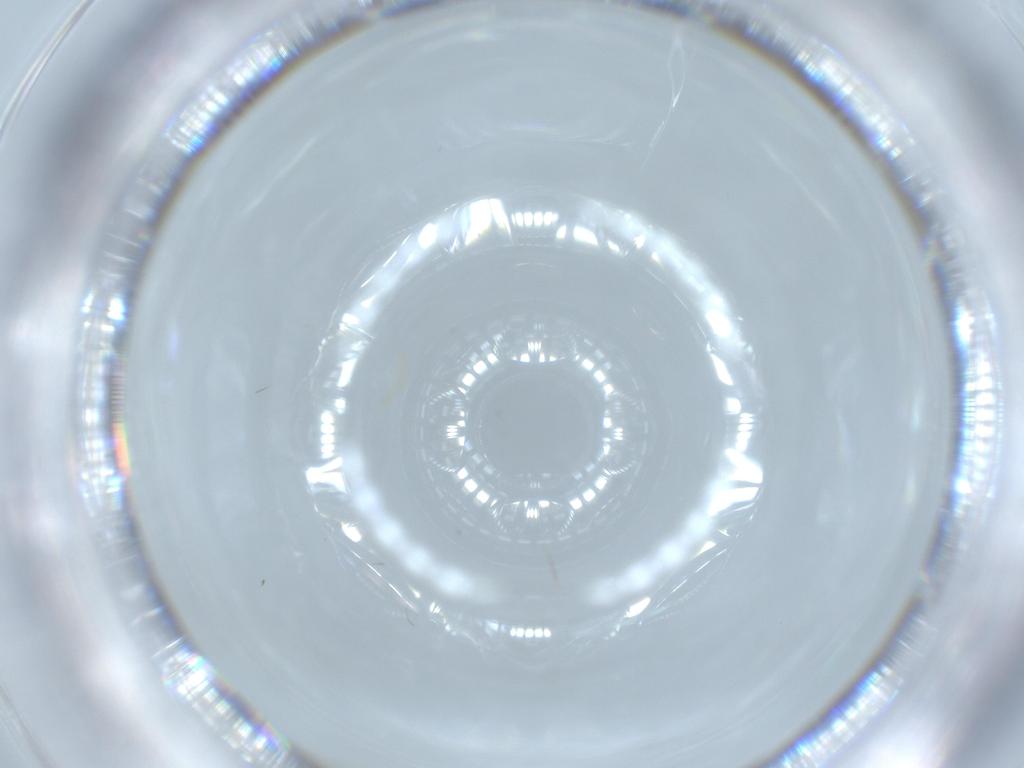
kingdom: Animalia
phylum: Arthropoda
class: Insecta
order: Diptera
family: Cecidomyiidae
